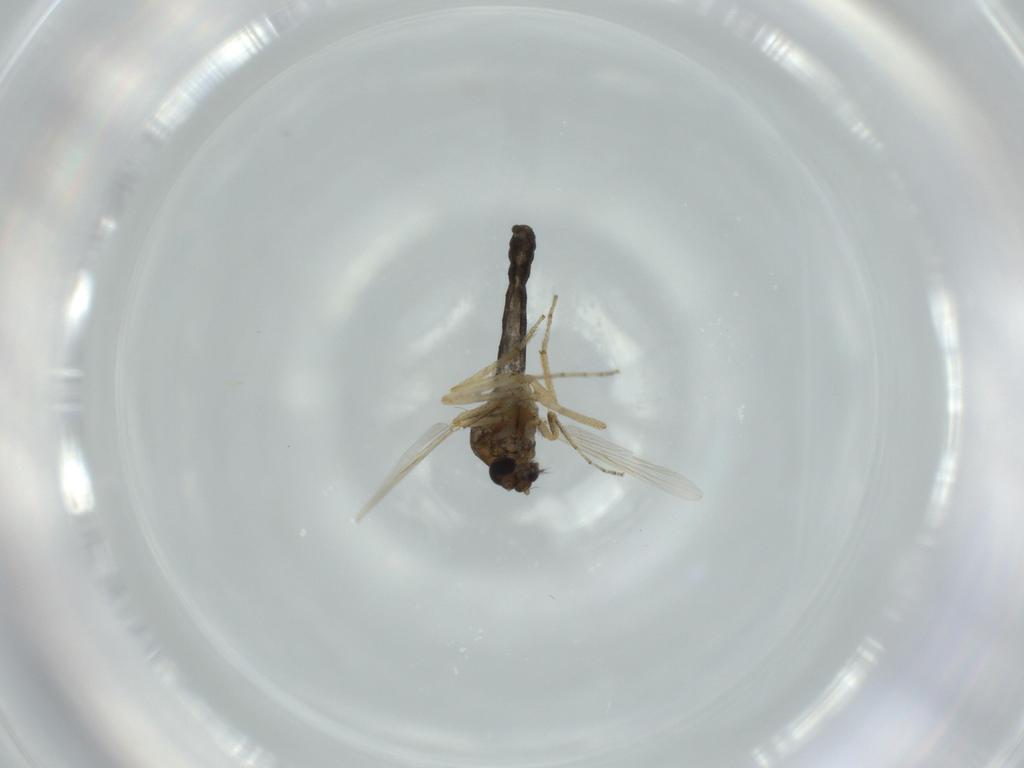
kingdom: Animalia
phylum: Arthropoda
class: Insecta
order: Diptera
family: Ceratopogonidae
